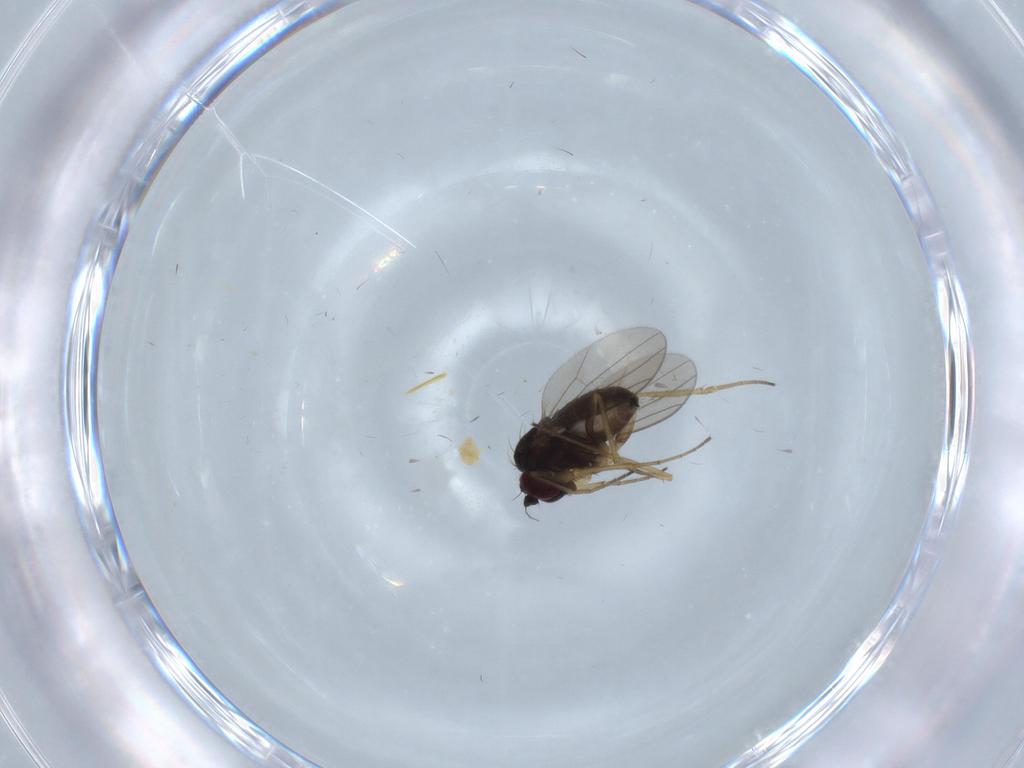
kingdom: Animalia
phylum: Arthropoda
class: Insecta
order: Diptera
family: Dolichopodidae
